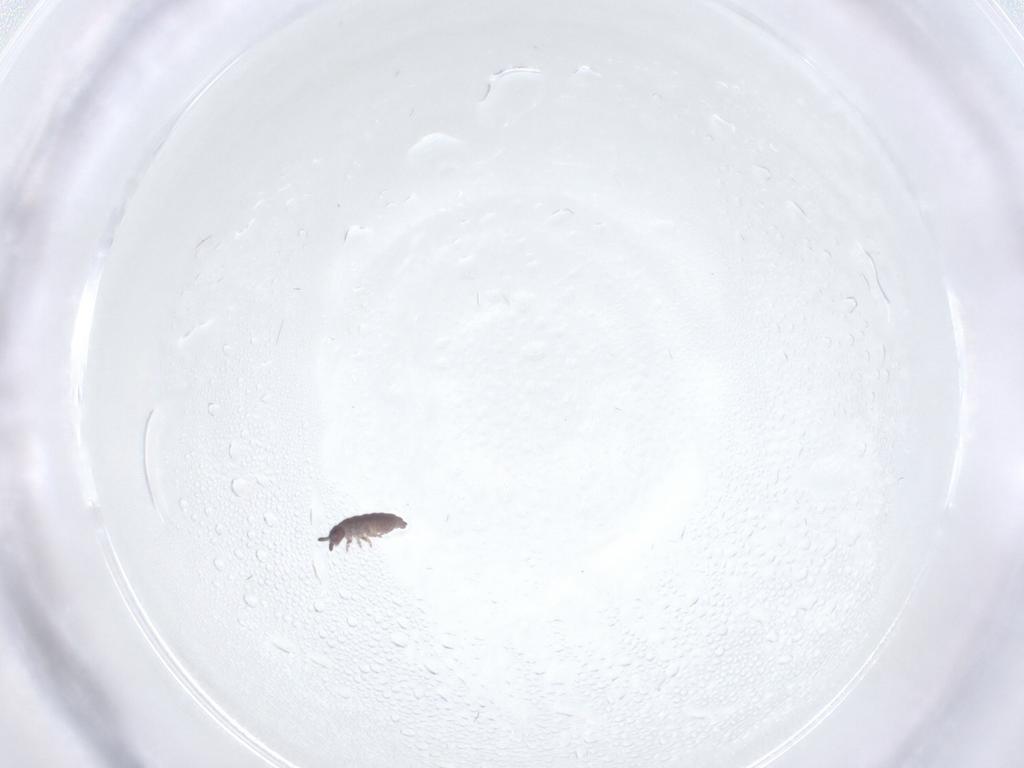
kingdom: Animalia
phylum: Arthropoda
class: Collembola
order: Poduromorpha
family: Hypogastruridae
